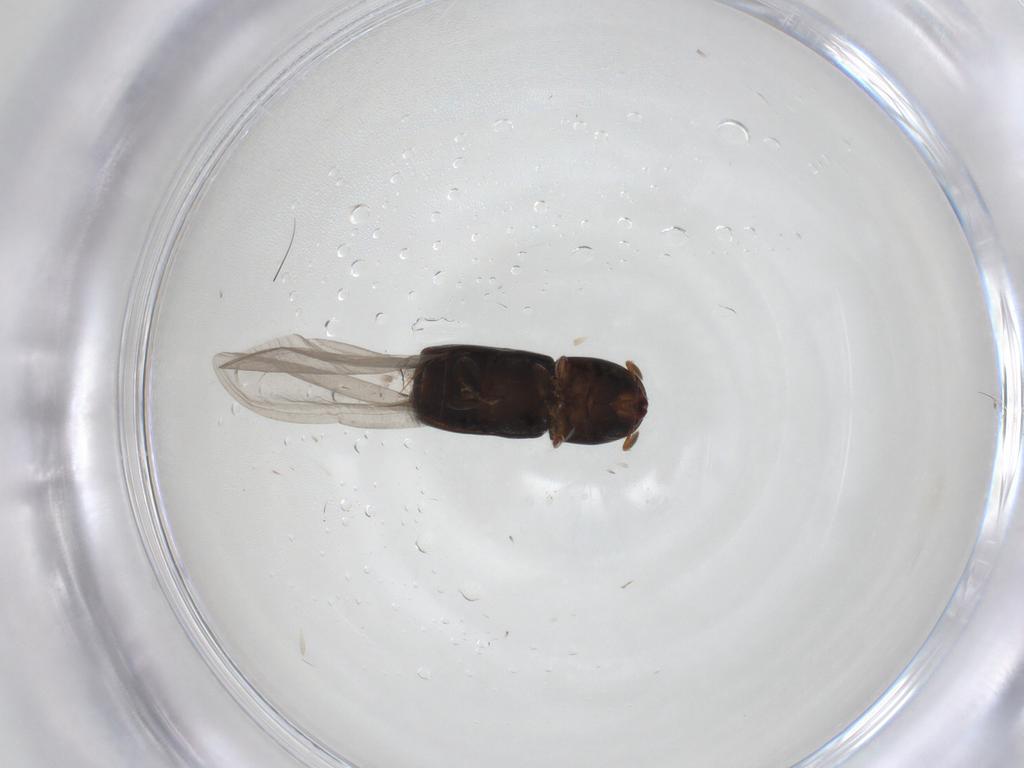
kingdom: Animalia
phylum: Arthropoda
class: Insecta
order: Coleoptera
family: Curculionidae
